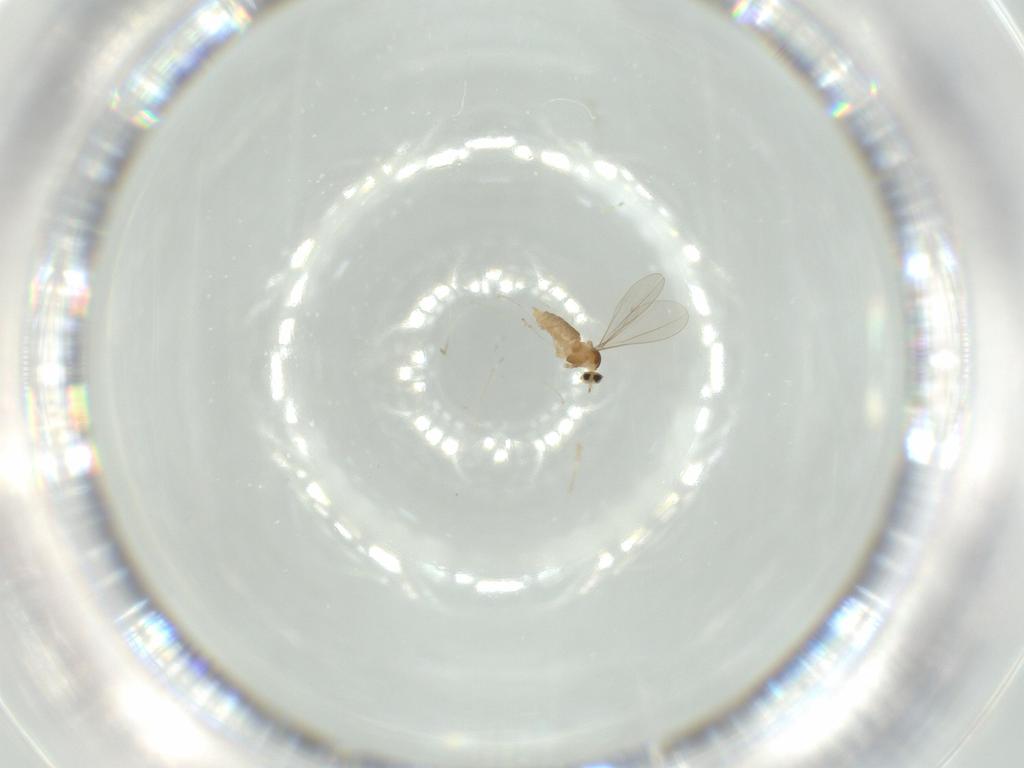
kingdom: Animalia
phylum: Arthropoda
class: Insecta
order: Diptera
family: Cecidomyiidae
